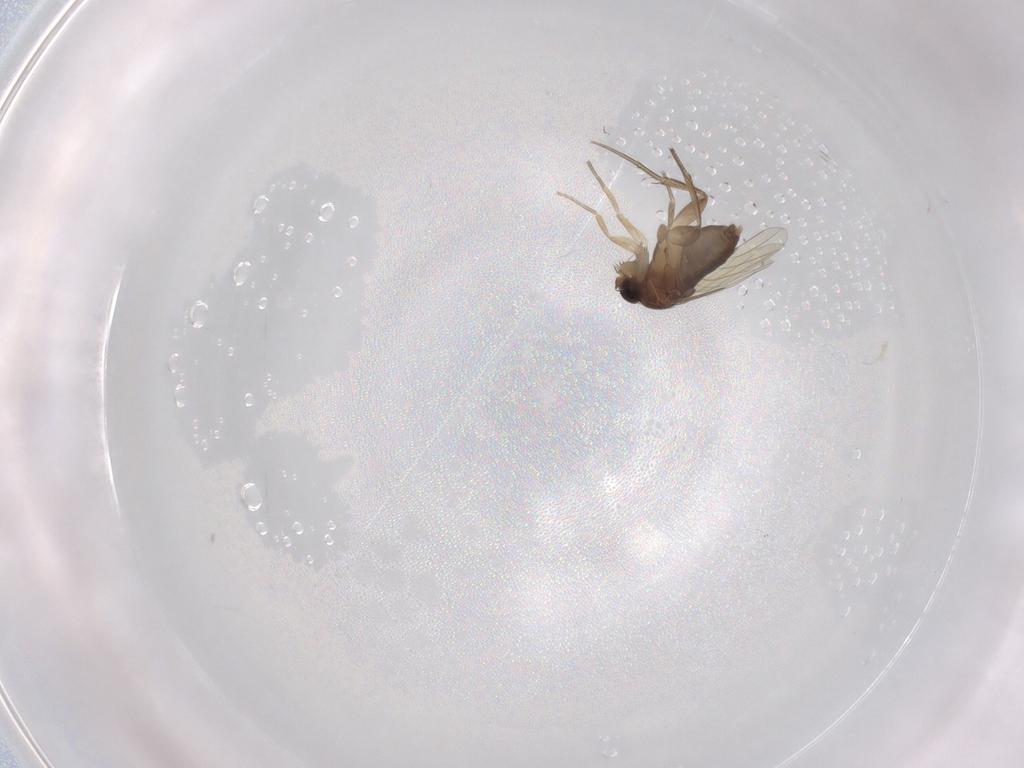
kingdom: Animalia
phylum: Arthropoda
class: Insecta
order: Diptera
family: Phoridae
